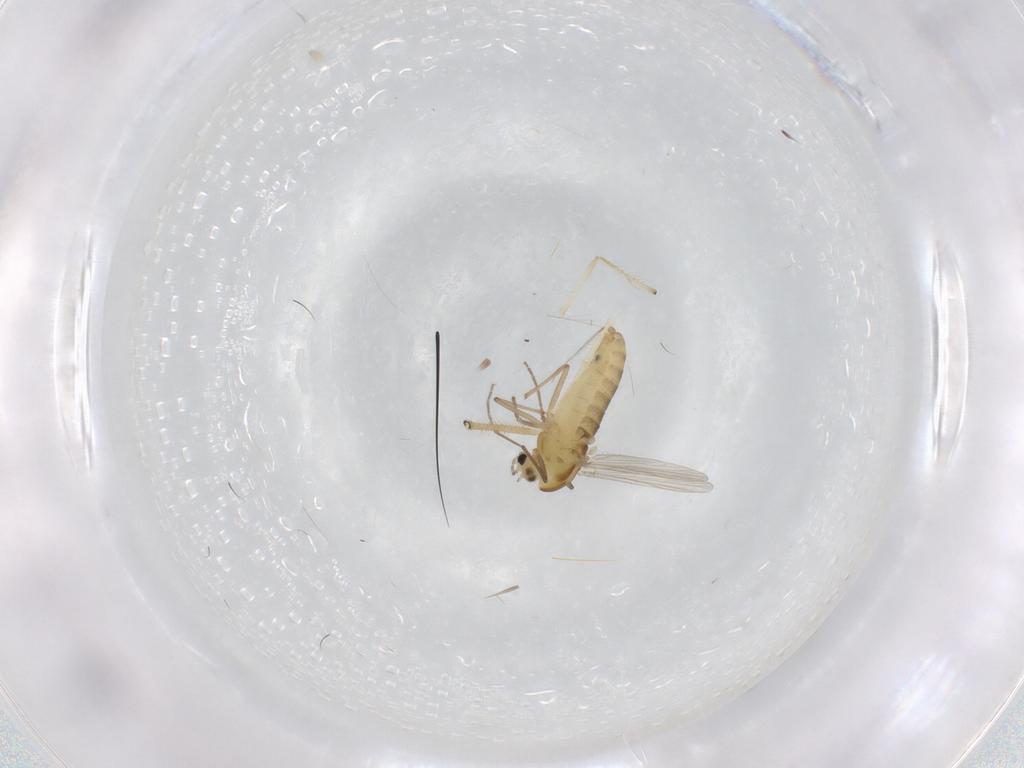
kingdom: Animalia
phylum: Arthropoda
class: Insecta
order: Diptera
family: Chironomidae
